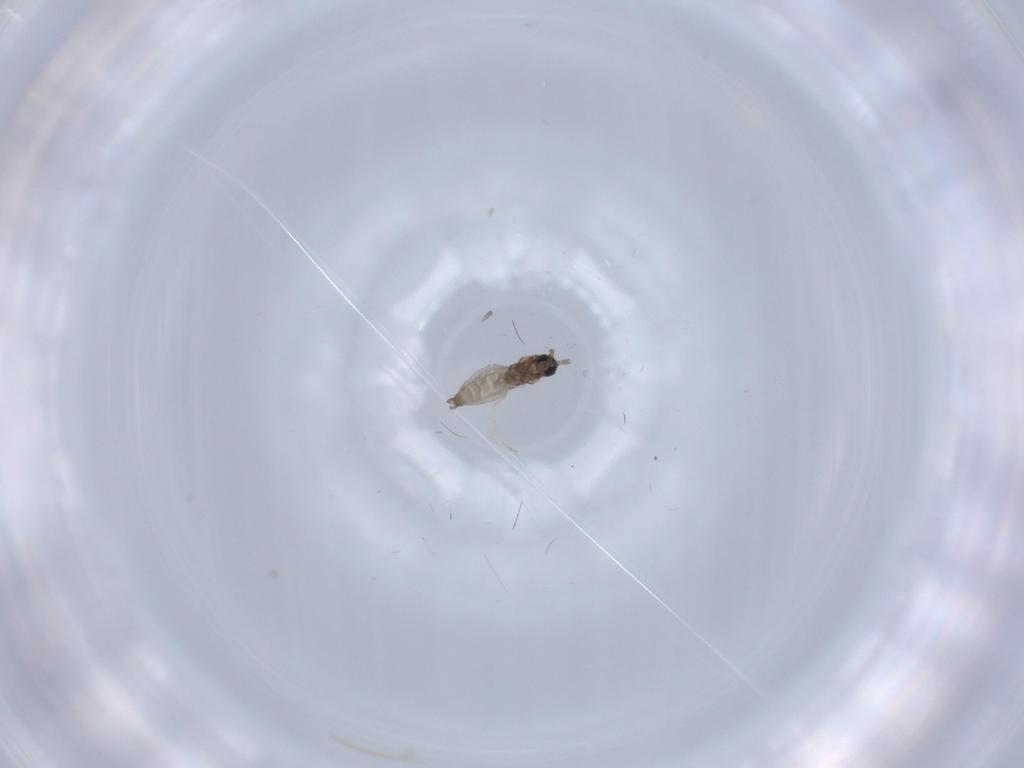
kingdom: Animalia
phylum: Arthropoda
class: Insecta
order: Diptera
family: Cecidomyiidae
